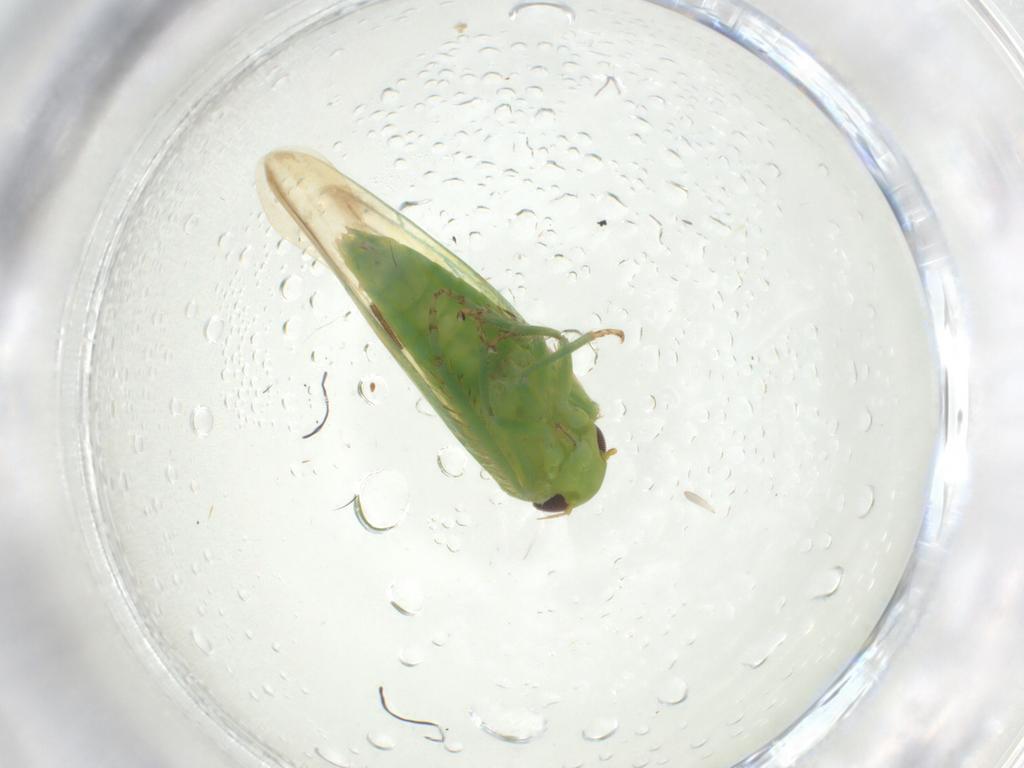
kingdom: Animalia
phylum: Arthropoda
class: Insecta
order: Hemiptera
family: Cicadellidae
